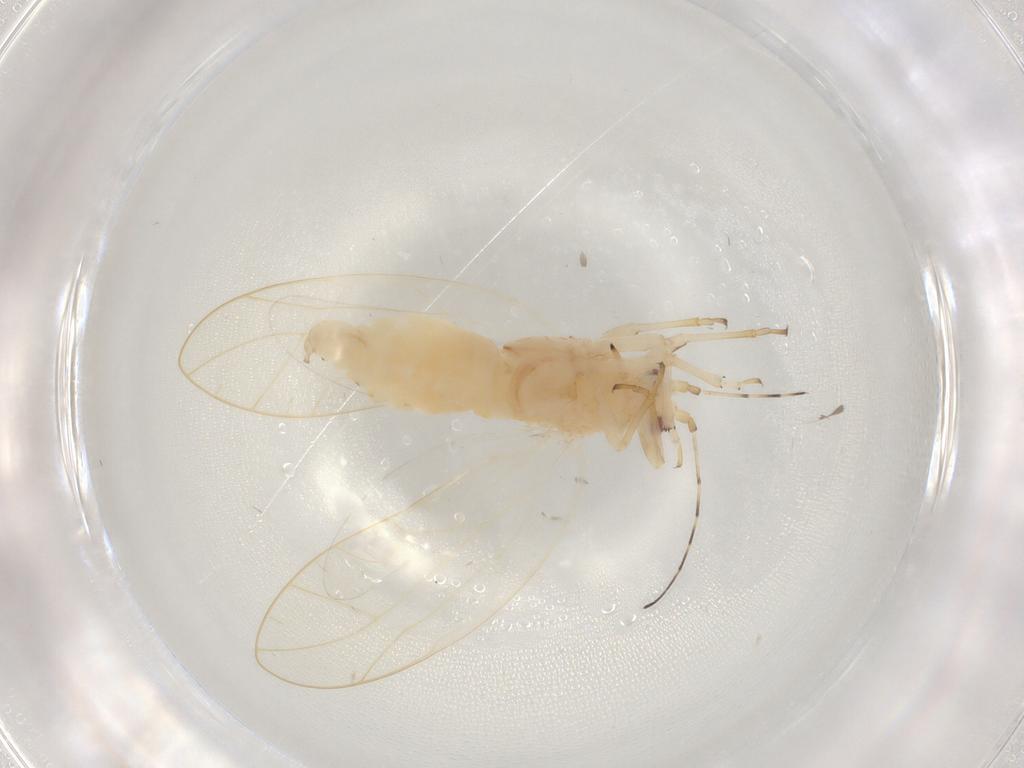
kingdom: Animalia
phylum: Arthropoda
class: Insecta
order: Hemiptera
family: Carsidaridae
